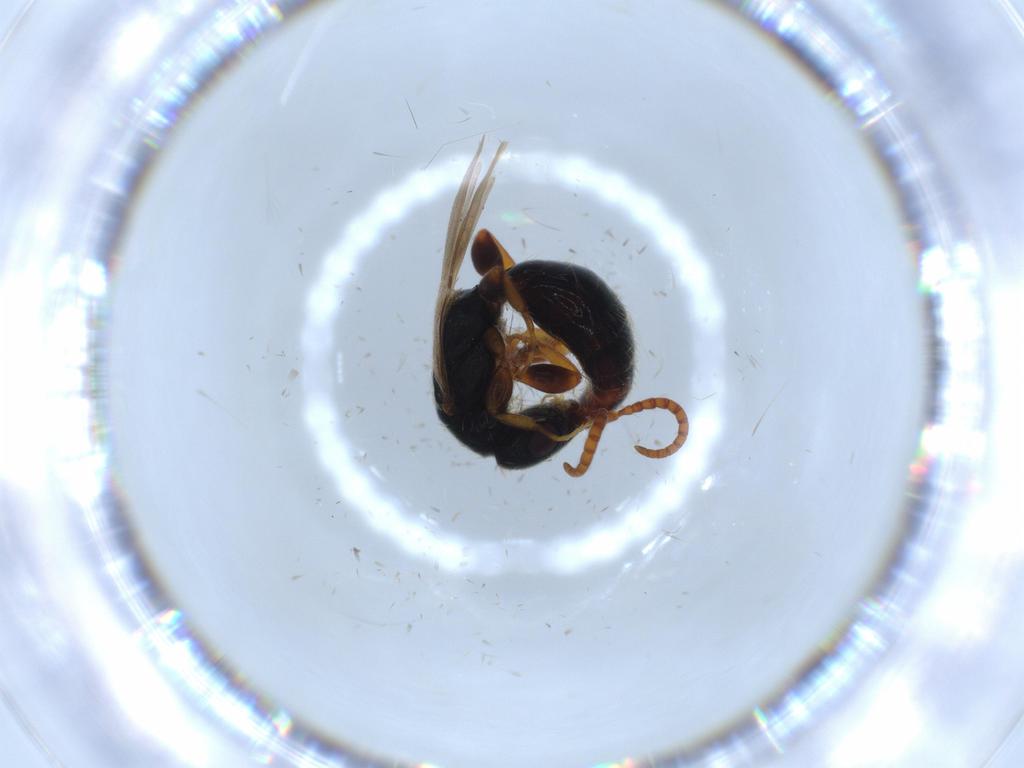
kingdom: Animalia
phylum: Arthropoda
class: Insecta
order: Hymenoptera
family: Bethylidae
